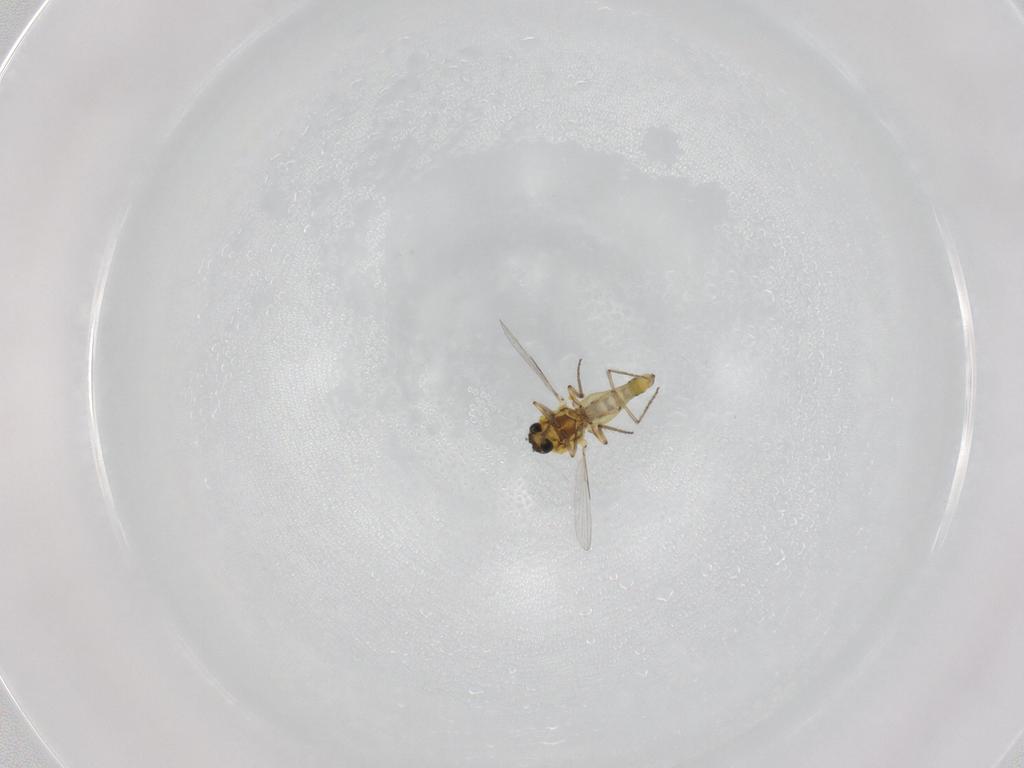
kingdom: Animalia
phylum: Arthropoda
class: Insecta
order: Diptera
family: Ceratopogonidae
